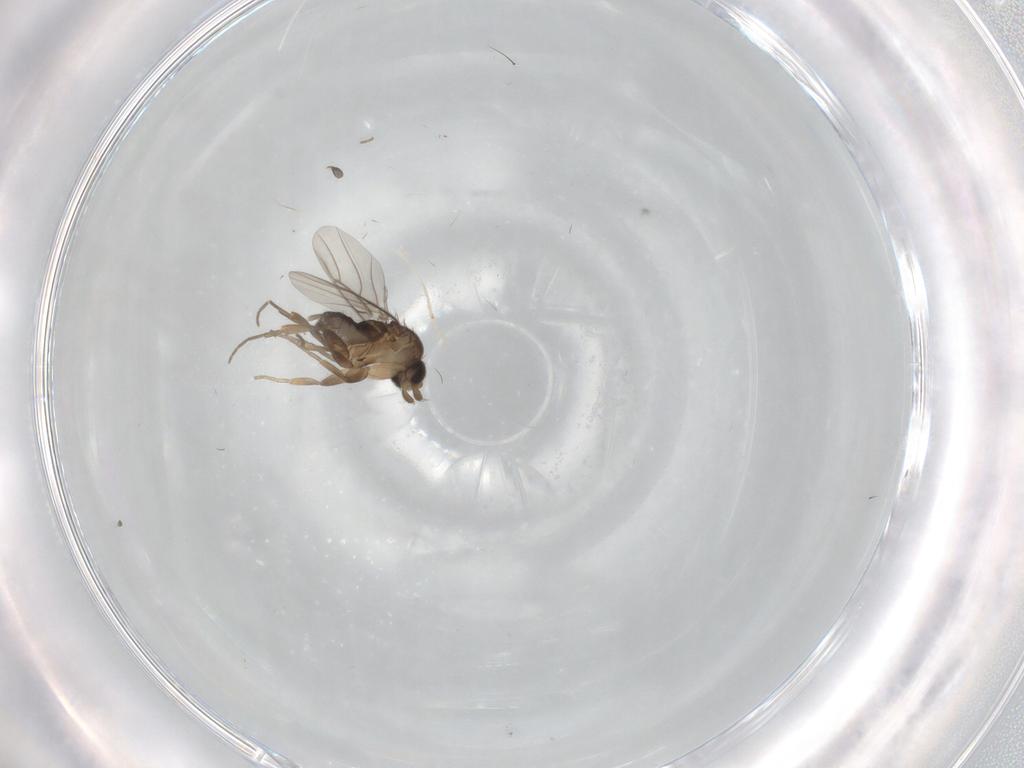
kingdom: Animalia
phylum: Arthropoda
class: Insecta
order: Diptera
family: Phoridae
